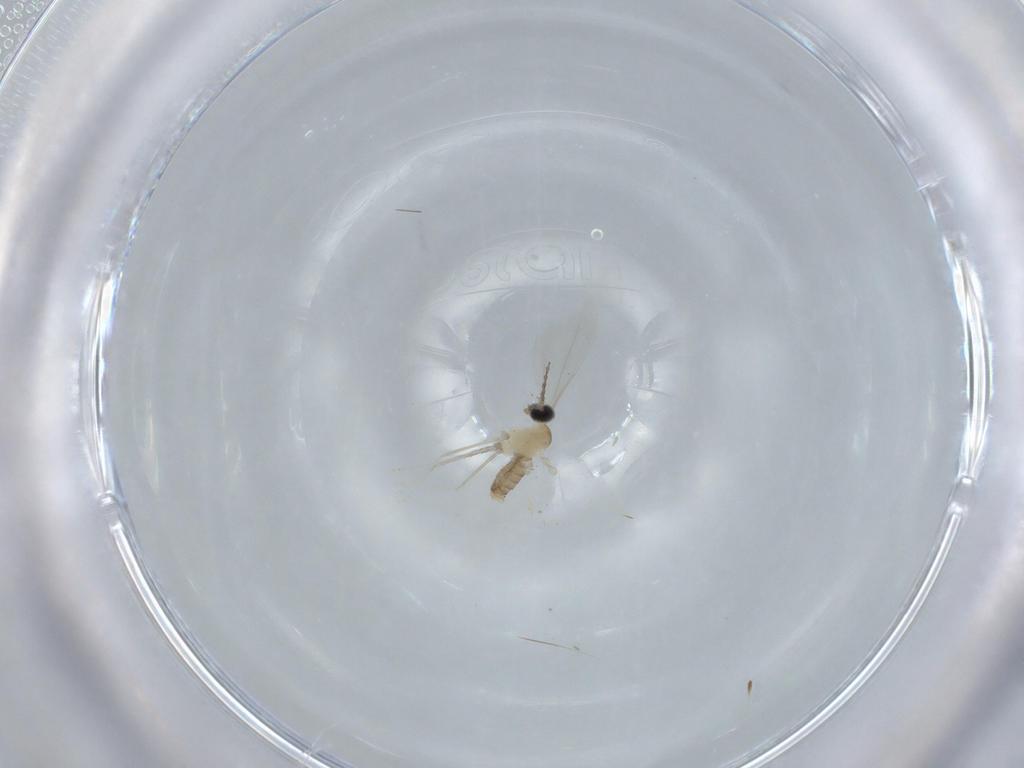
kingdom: Animalia
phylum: Arthropoda
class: Insecta
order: Diptera
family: Cecidomyiidae
